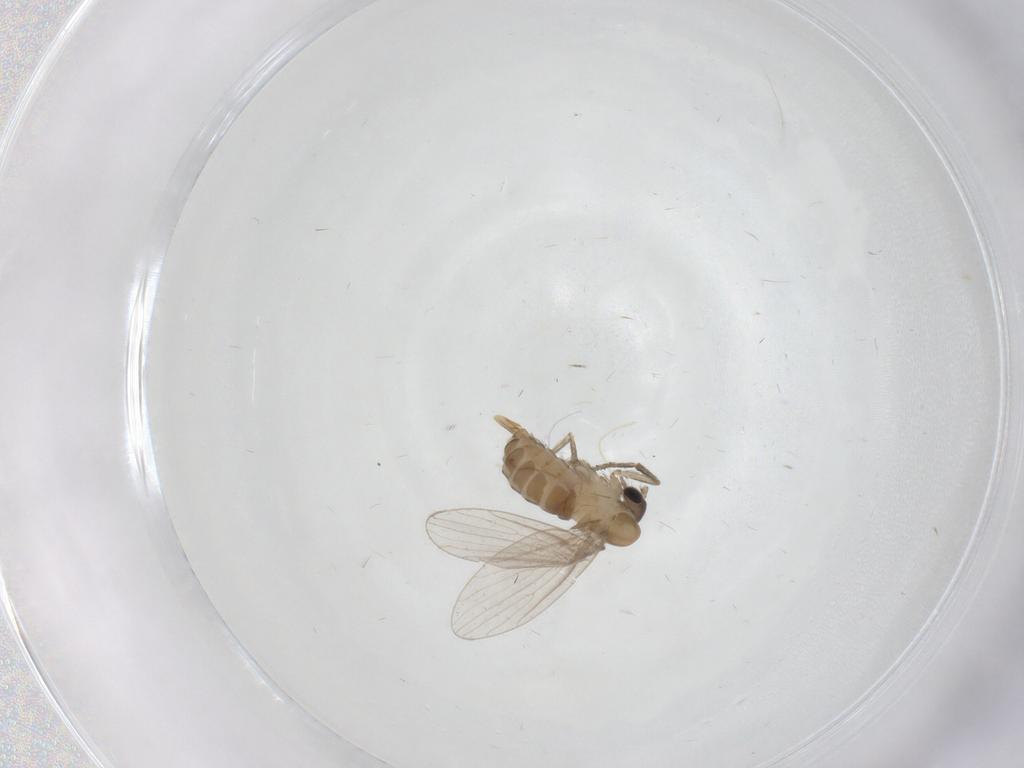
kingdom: Animalia
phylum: Arthropoda
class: Insecta
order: Diptera
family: Psychodidae
